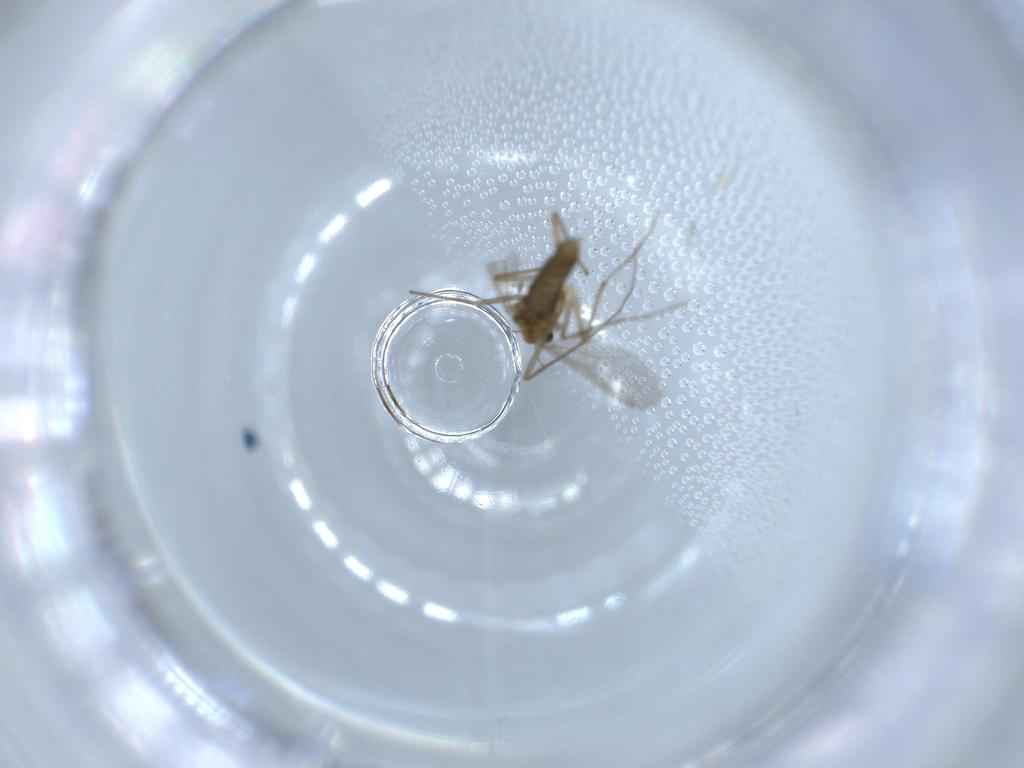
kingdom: Animalia
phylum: Arthropoda
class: Insecta
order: Diptera
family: Chironomidae
